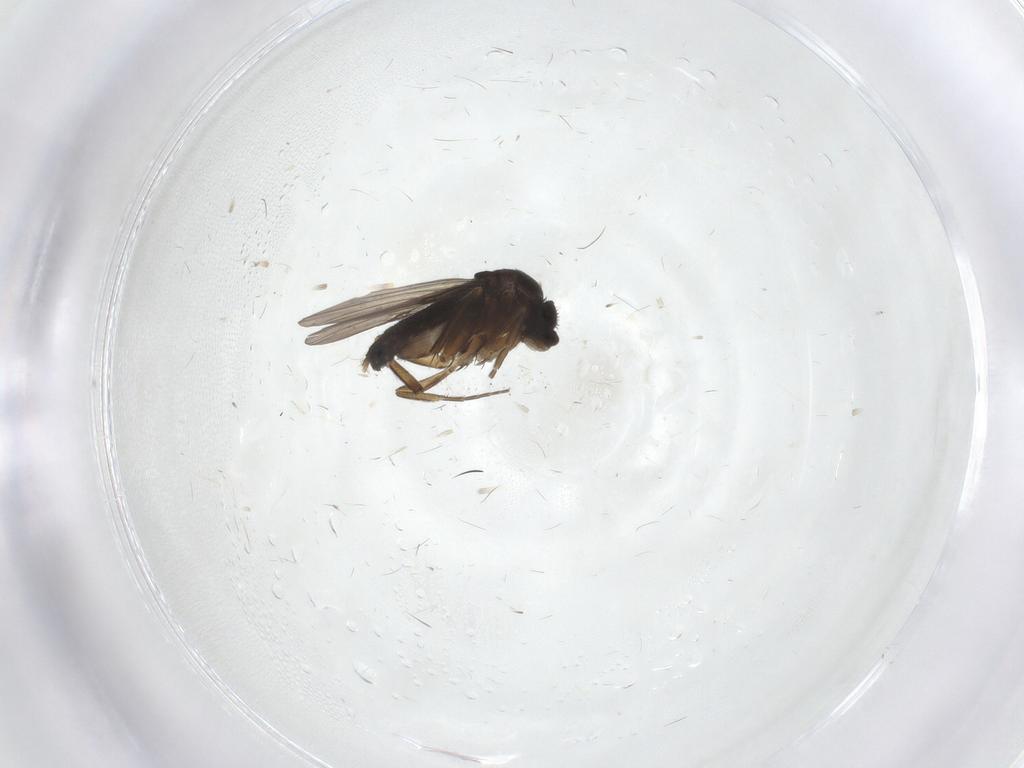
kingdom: Animalia
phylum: Arthropoda
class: Insecta
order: Diptera
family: Phoridae
